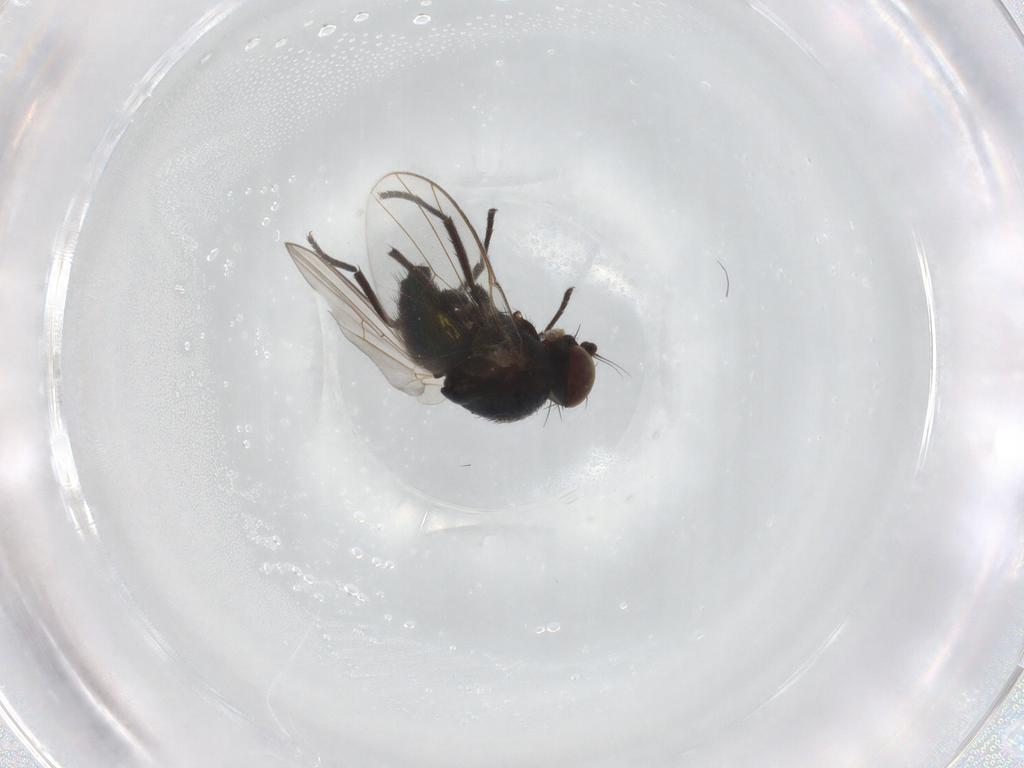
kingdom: Animalia
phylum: Arthropoda
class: Insecta
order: Diptera
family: Agromyzidae
